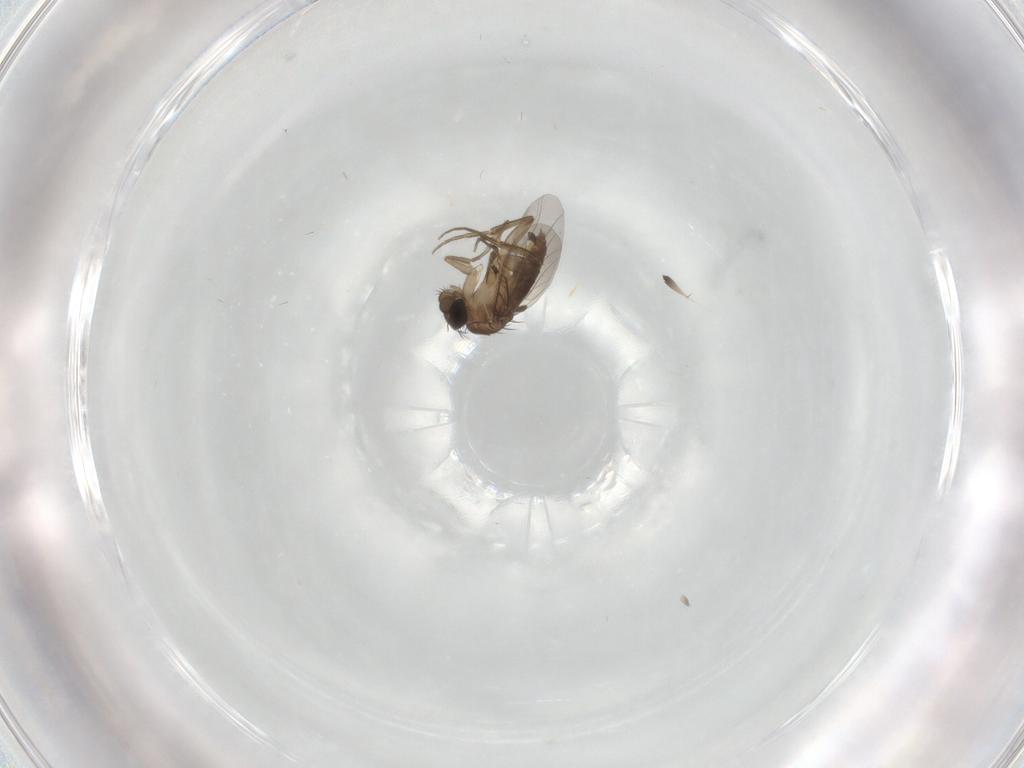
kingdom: Animalia
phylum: Arthropoda
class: Insecta
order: Diptera
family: Phoridae
